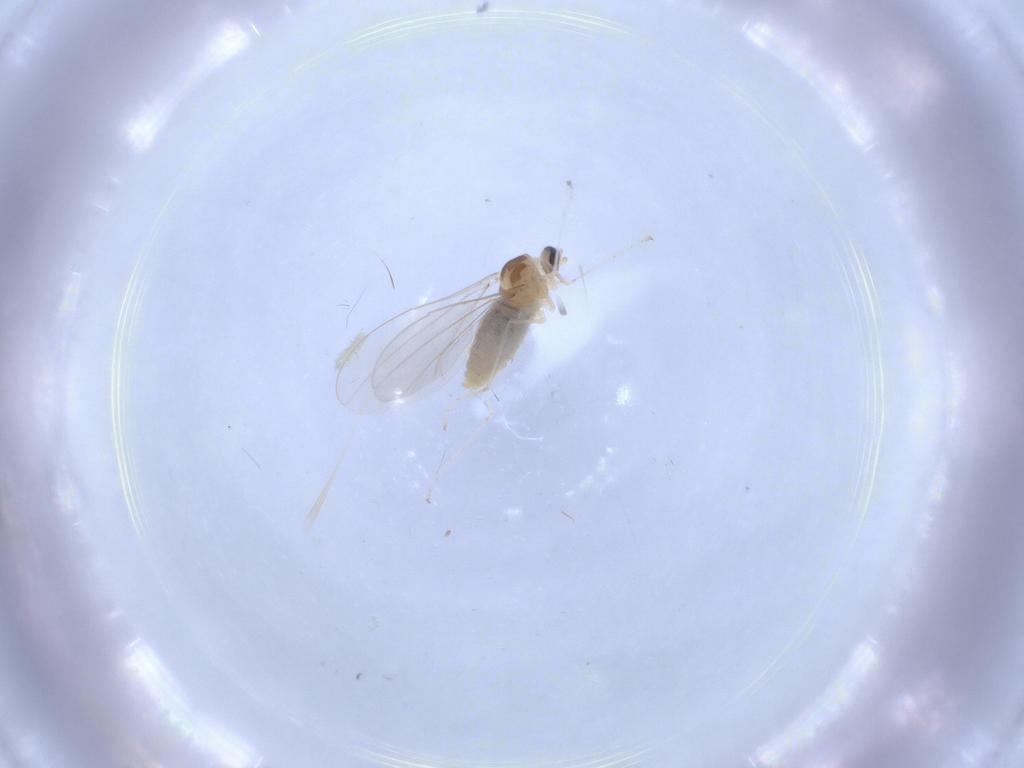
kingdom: Animalia
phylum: Arthropoda
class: Insecta
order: Diptera
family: Cecidomyiidae
